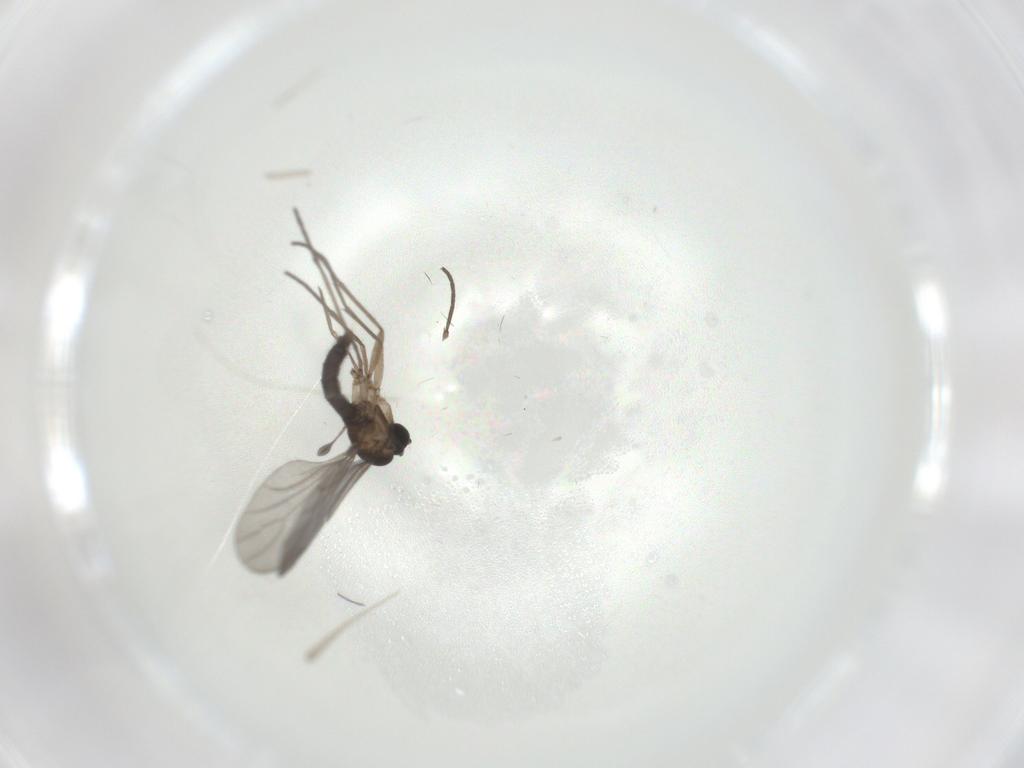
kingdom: Animalia
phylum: Arthropoda
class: Insecta
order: Diptera
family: Sciaridae
